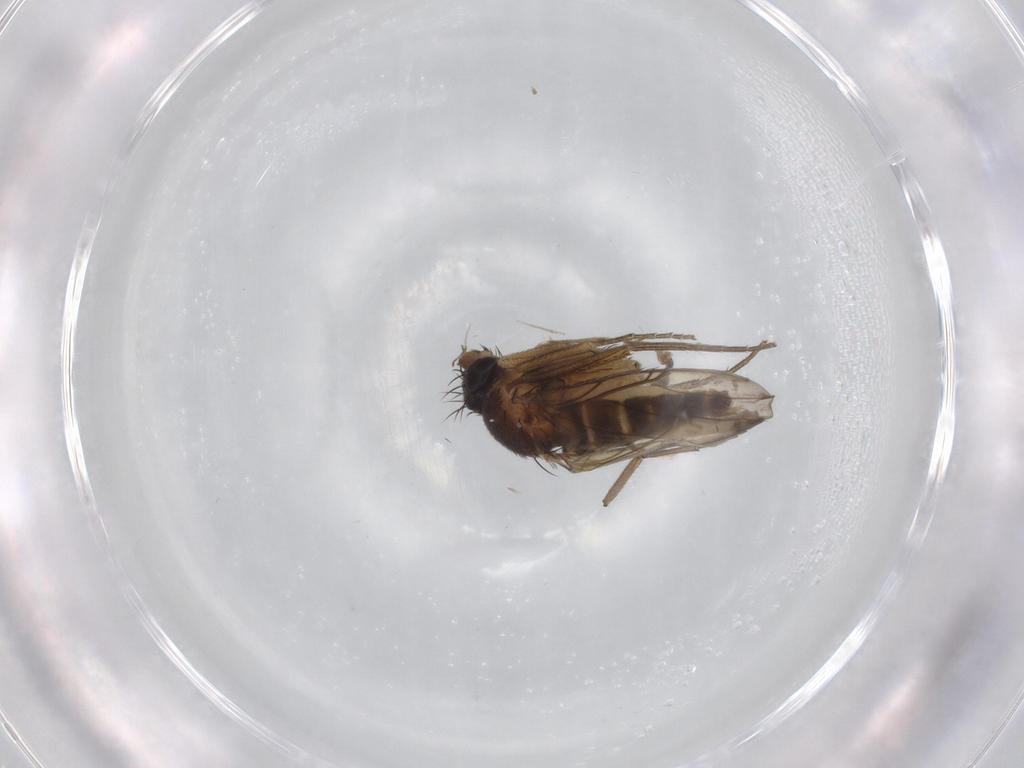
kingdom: Animalia
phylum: Arthropoda
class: Insecta
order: Diptera
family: Phoridae
